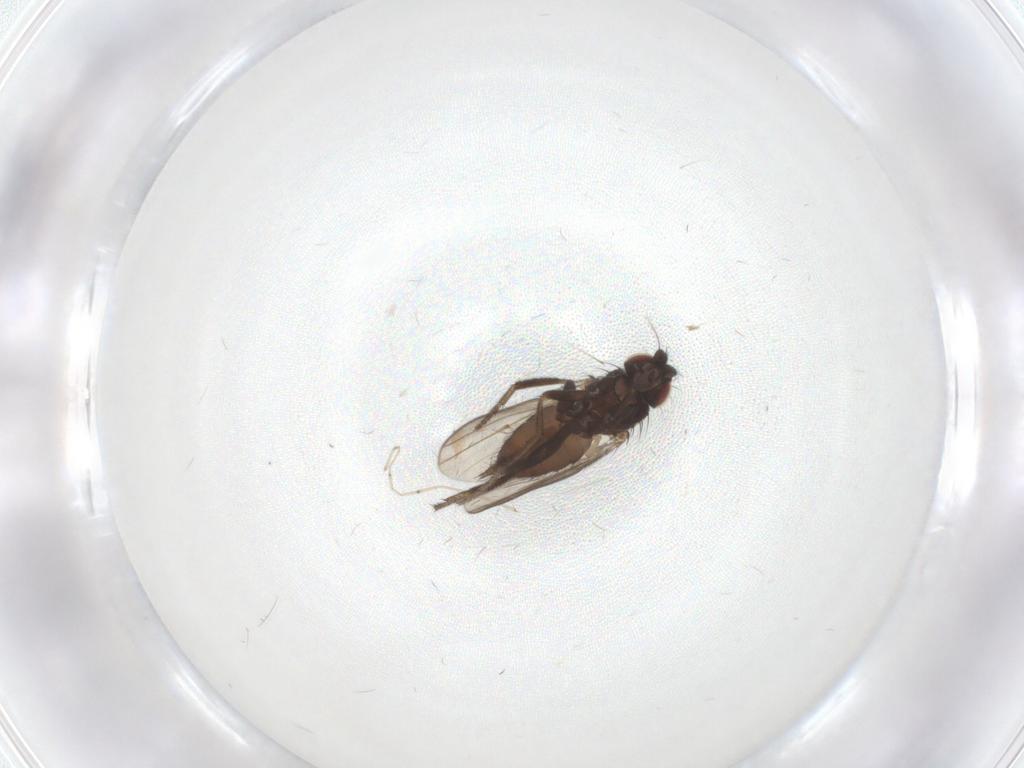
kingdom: Animalia
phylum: Arthropoda
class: Insecta
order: Diptera
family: Milichiidae
